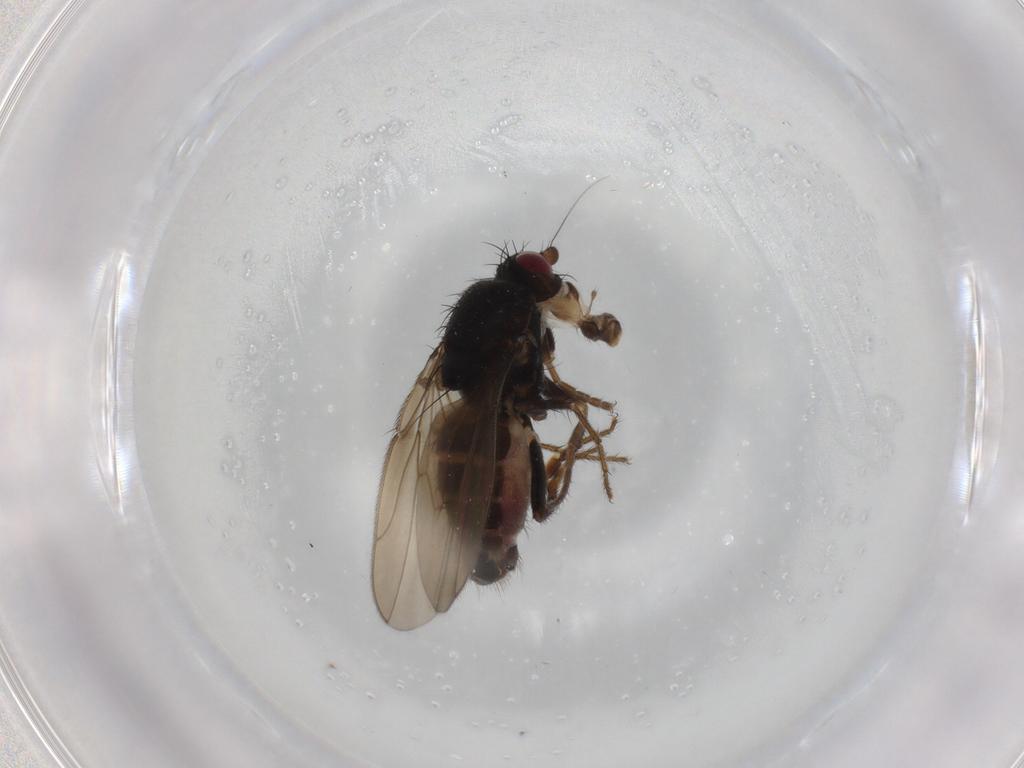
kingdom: Animalia
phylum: Arthropoda
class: Insecta
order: Diptera
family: Sphaeroceridae
